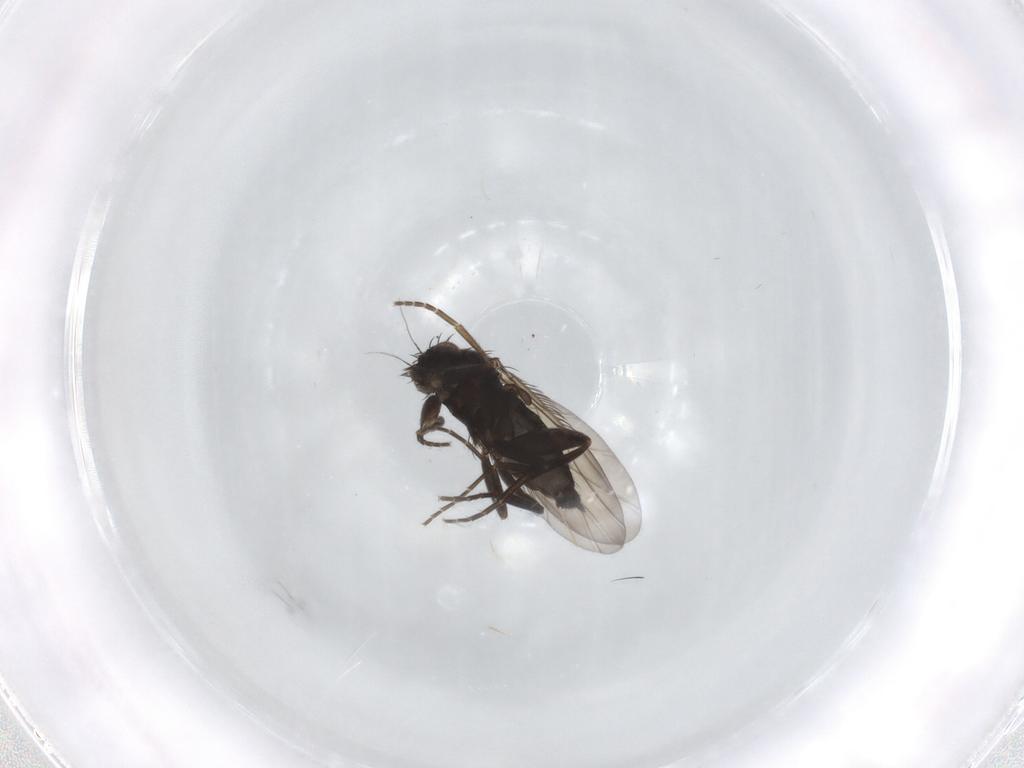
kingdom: Animalia
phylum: Arthropoda
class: Insecta
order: Diptera
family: Phoridae
